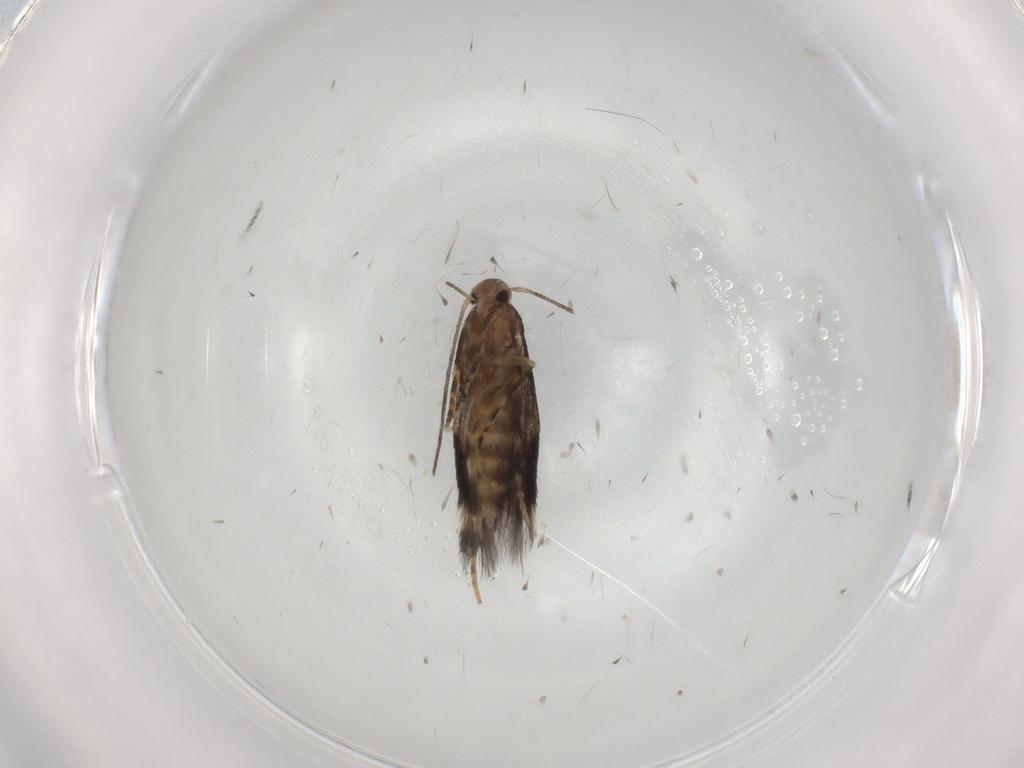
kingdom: Animalia
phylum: Arthropoda
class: Insecta
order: Lepidoptera
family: Elachistidae
